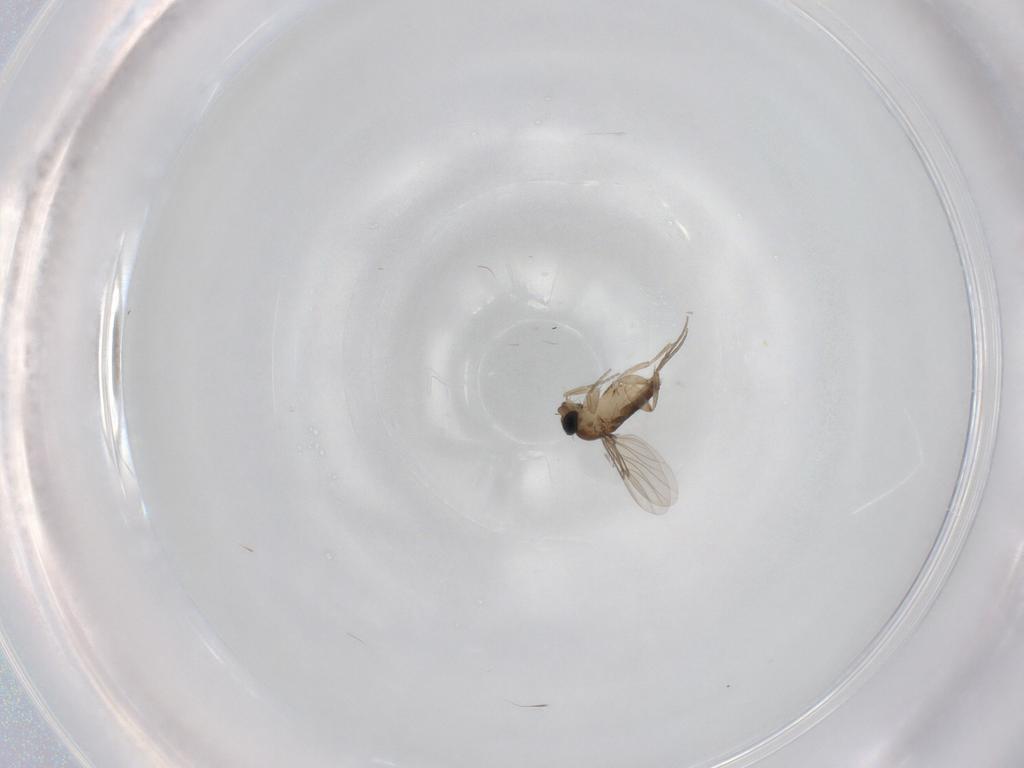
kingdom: Animalia
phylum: Arthropoda
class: Insecta
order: Diptera
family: Phoridae
